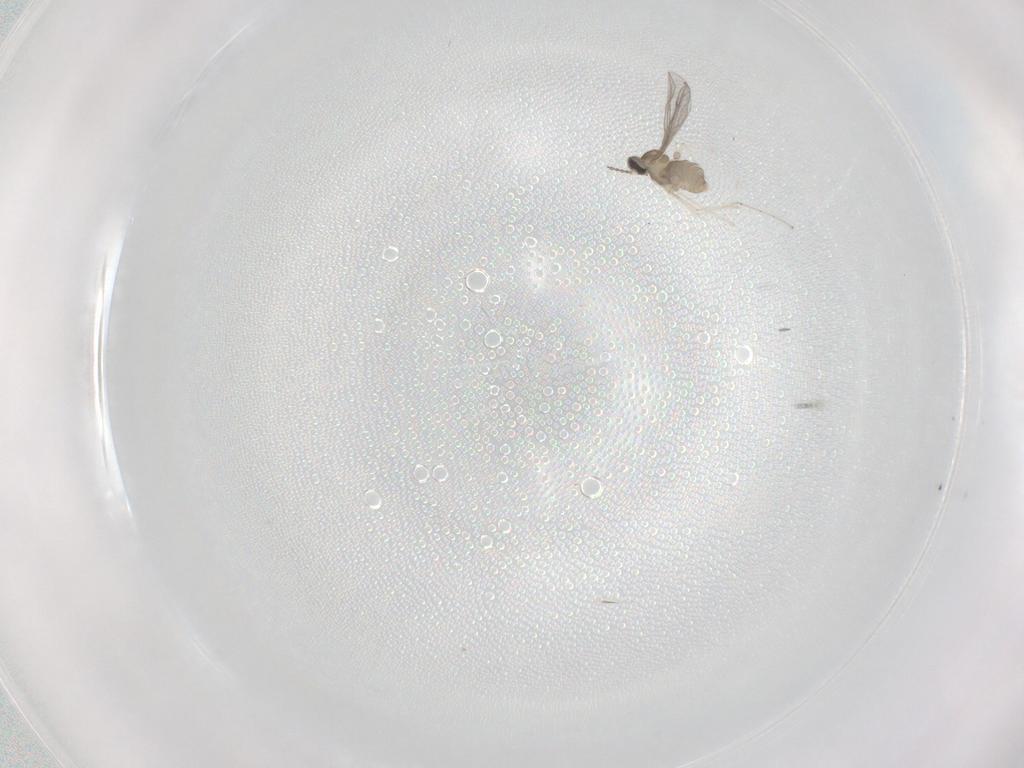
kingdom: Animalia
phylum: Arthropoda
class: Insecta
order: Diptera
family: Cecidomyiidae
